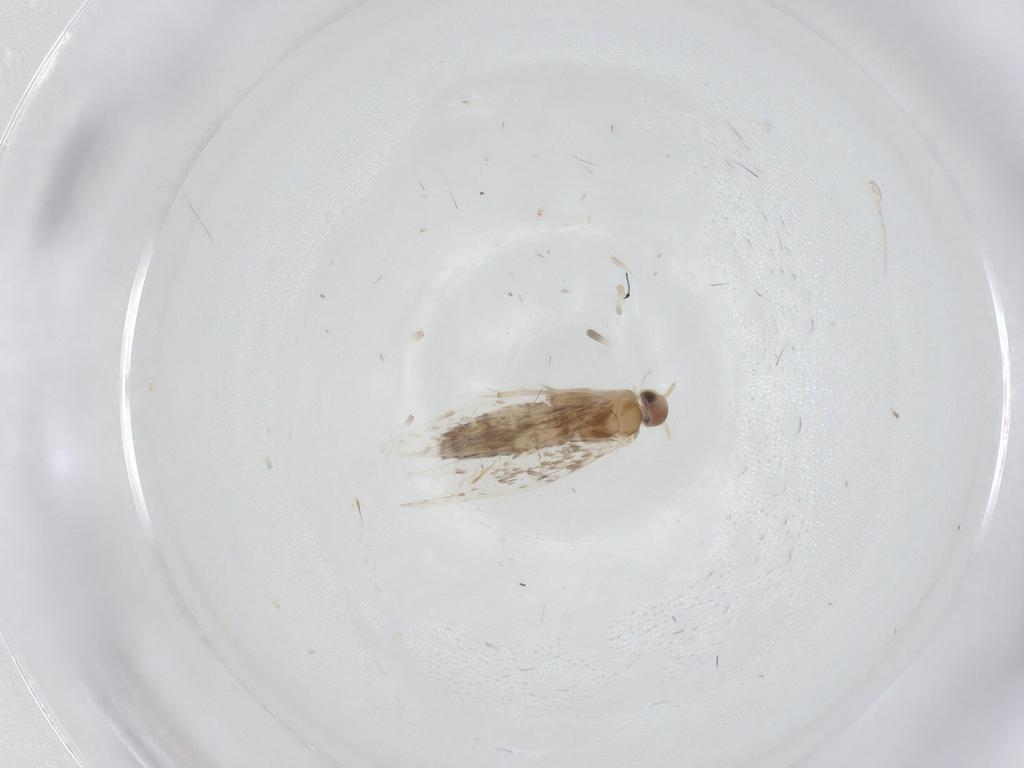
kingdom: Animalia
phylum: Arthropoda
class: Insecta
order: Lepidoptera
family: Tortricidae
